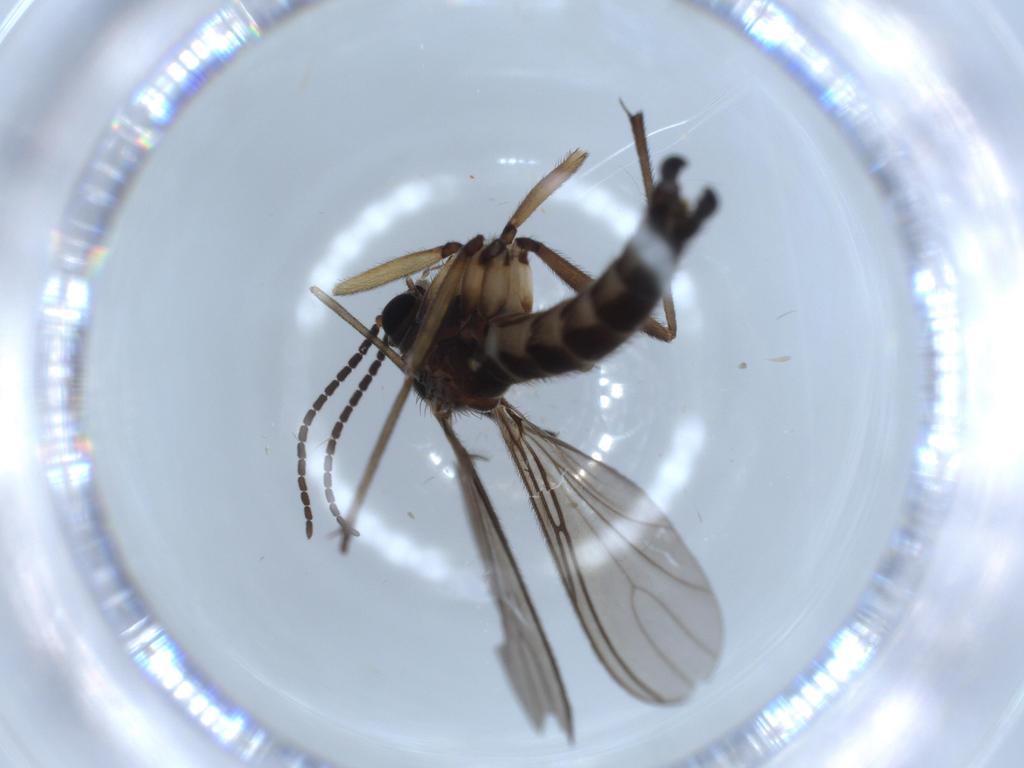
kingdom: Animalia
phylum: Arthropoda
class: Insecta
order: Diptera
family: Sciaridae
